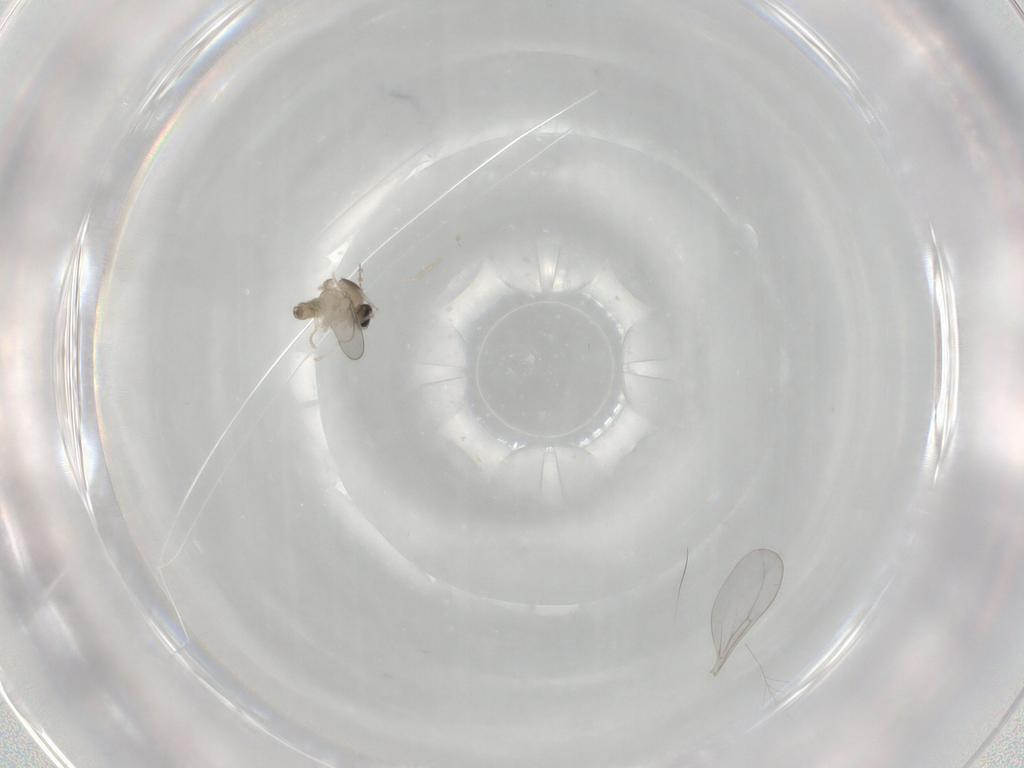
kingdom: Animalia
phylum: Arthropoda
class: Insecta
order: Diptera
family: Cecidomyiidae
